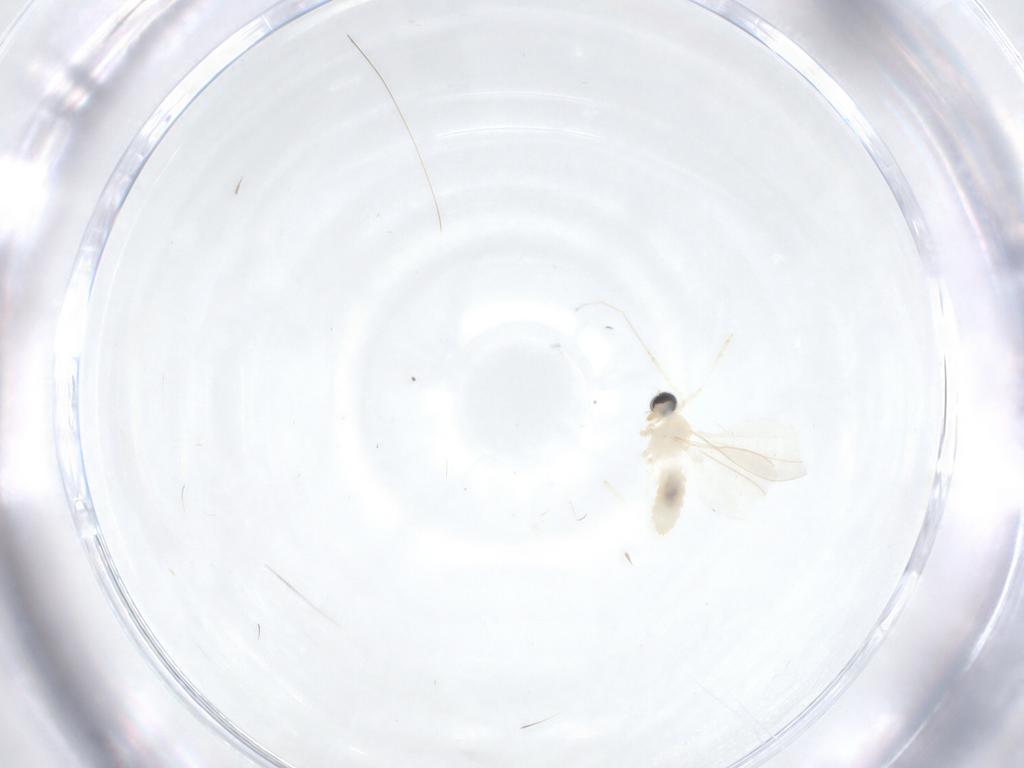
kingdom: Animalia
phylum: Arthropoda
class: Insecta
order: Diptera
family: Cecidomyiidae
